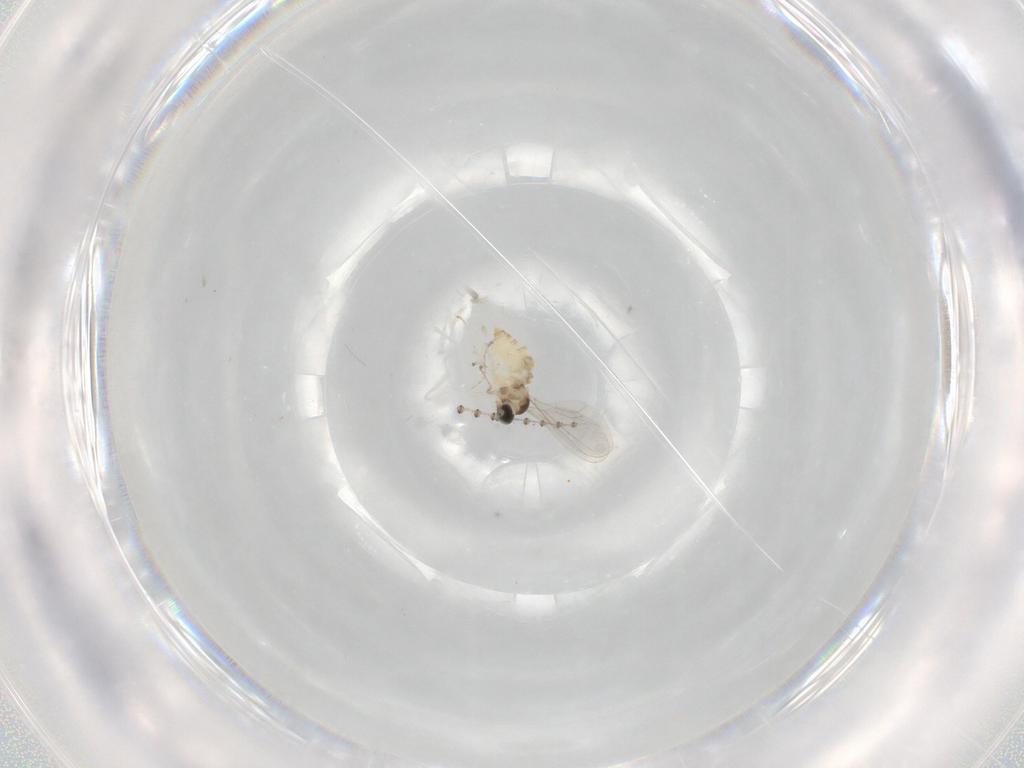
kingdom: Animalia
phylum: Arthropoda
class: Insecta
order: Diptera
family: Cecidomyiidae
